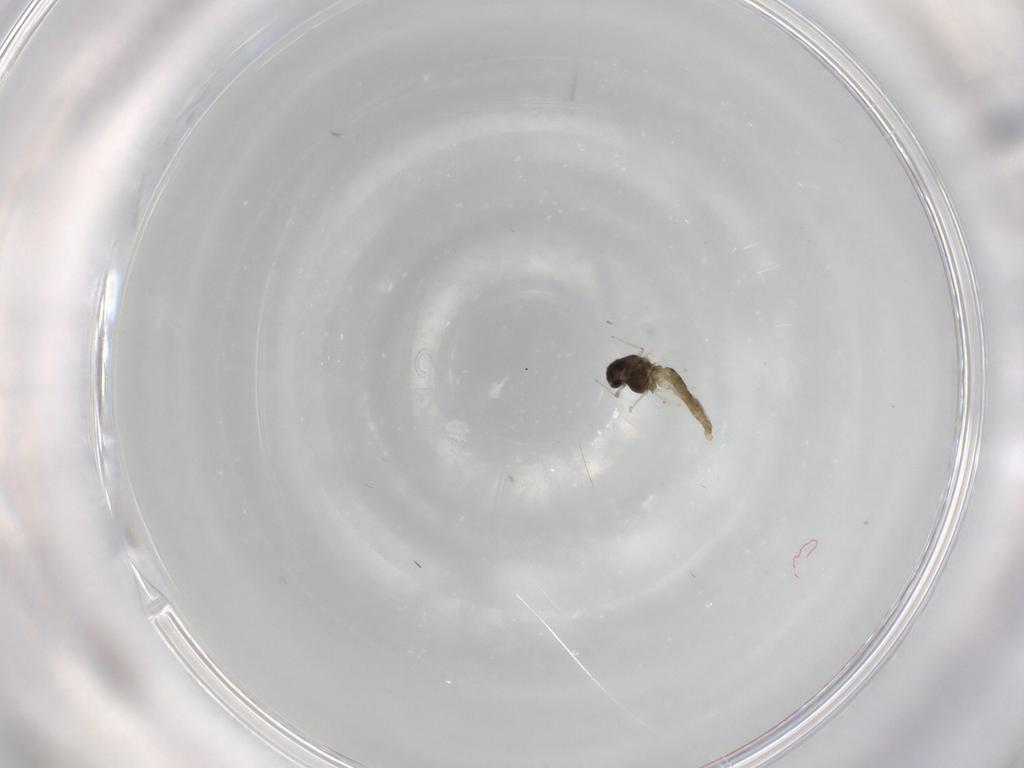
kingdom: Animalia
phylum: Arthropoda
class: Insecta
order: Diptera
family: Chironomidae
